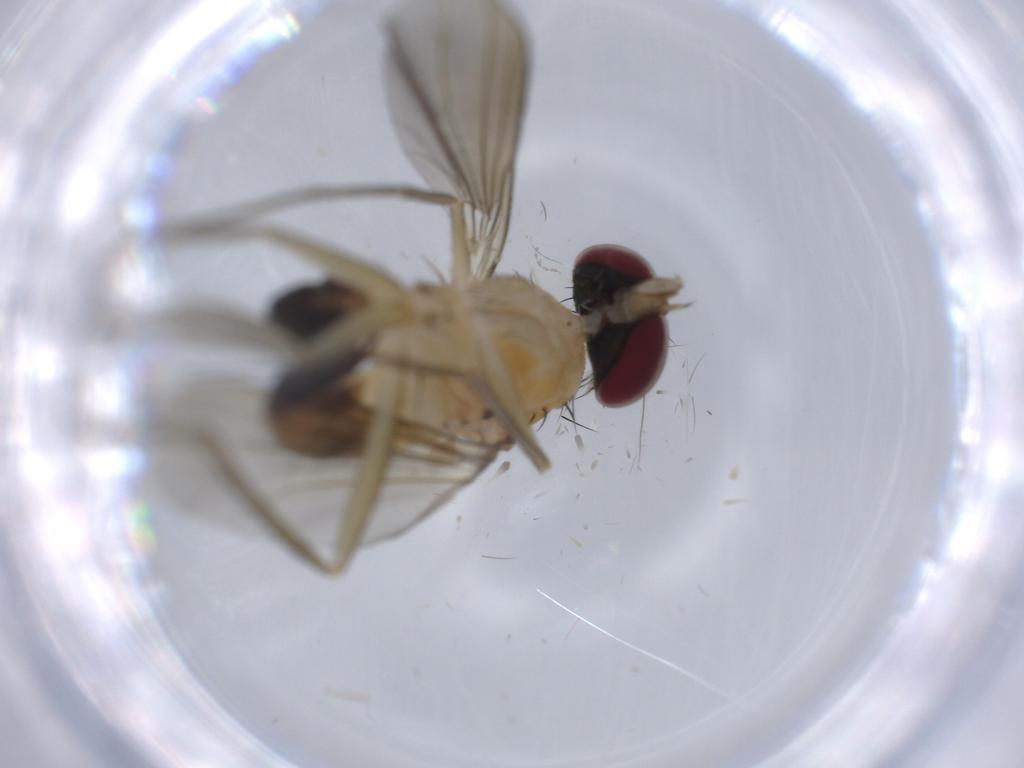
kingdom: Animalia
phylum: Arthropoda
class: Insecta
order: Diptera
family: Dolichopodidae
